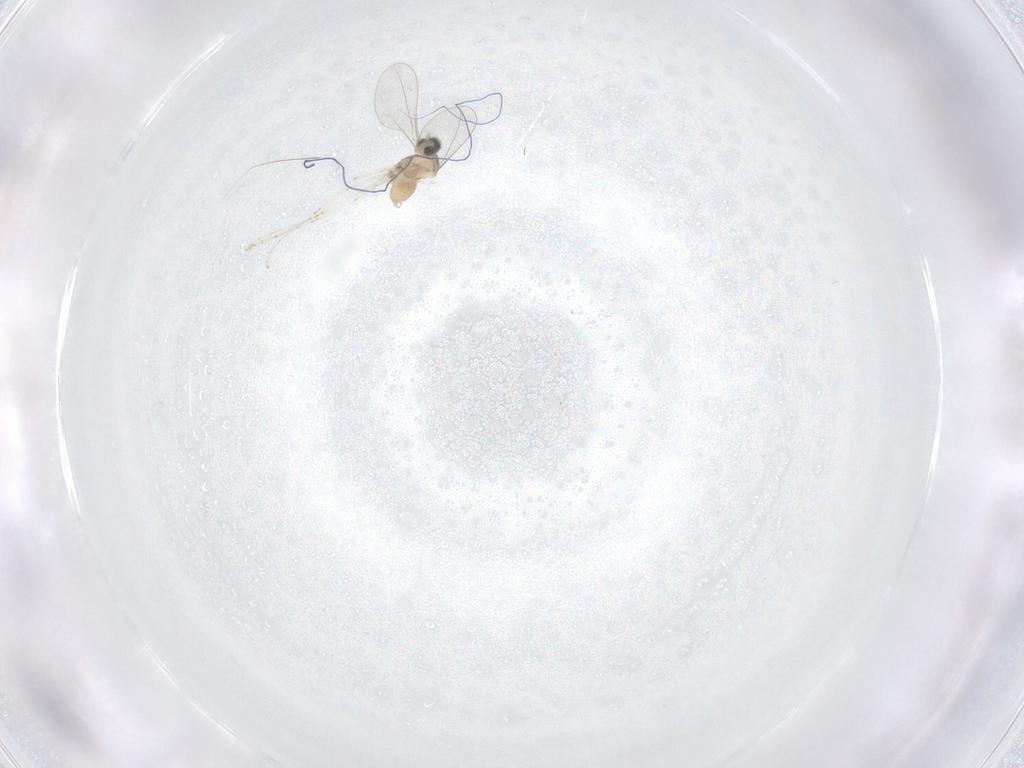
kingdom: Animalia
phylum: Arthropoda
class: Insecta
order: Diptera
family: Cecidomyiidae
